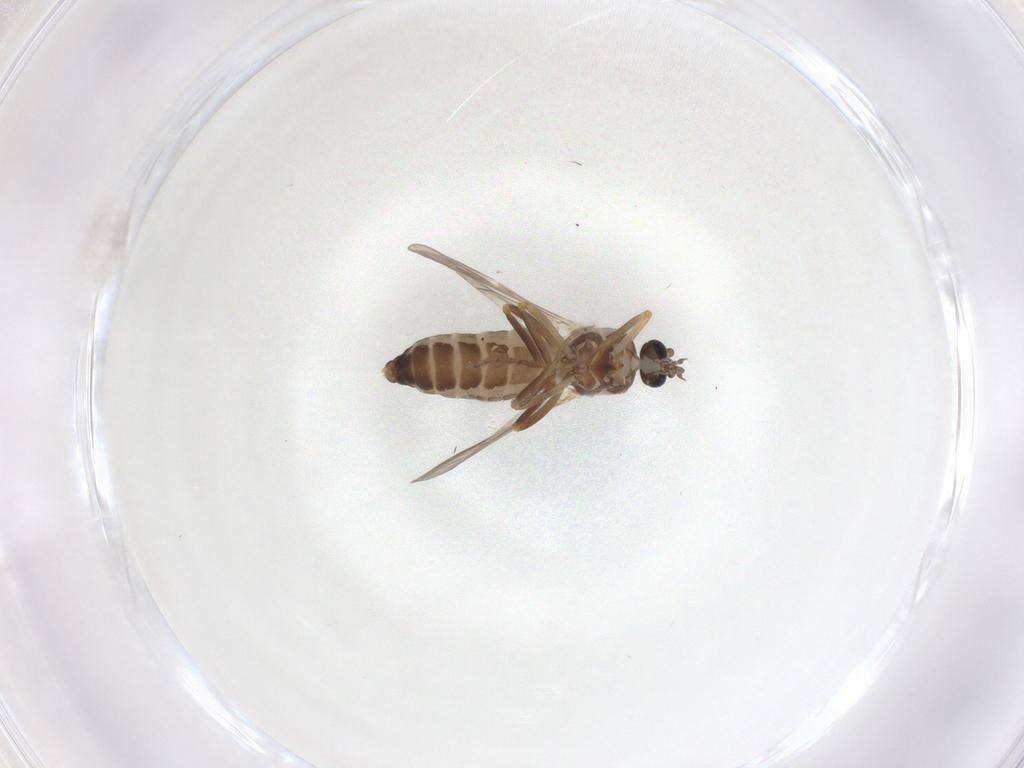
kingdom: Animalia
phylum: Arthropoda
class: Insecta
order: Diptera
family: Ceratopogonidae
